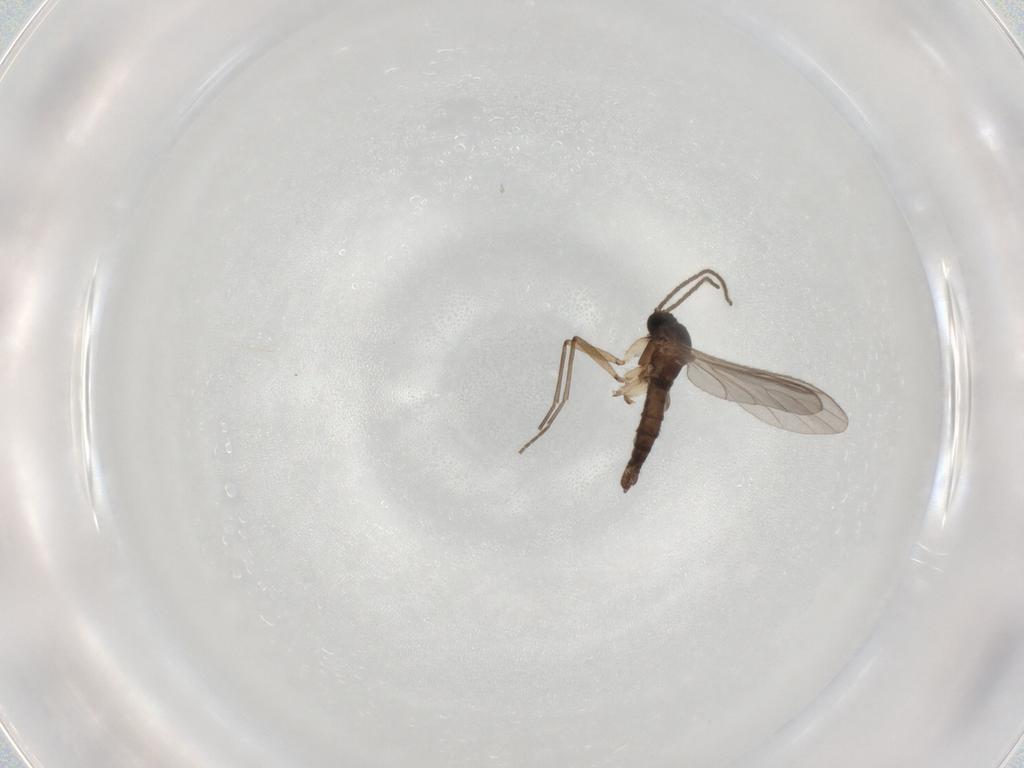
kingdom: Animalia
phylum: Arthropoda
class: Insecta
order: Diptera
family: Sciaridae
